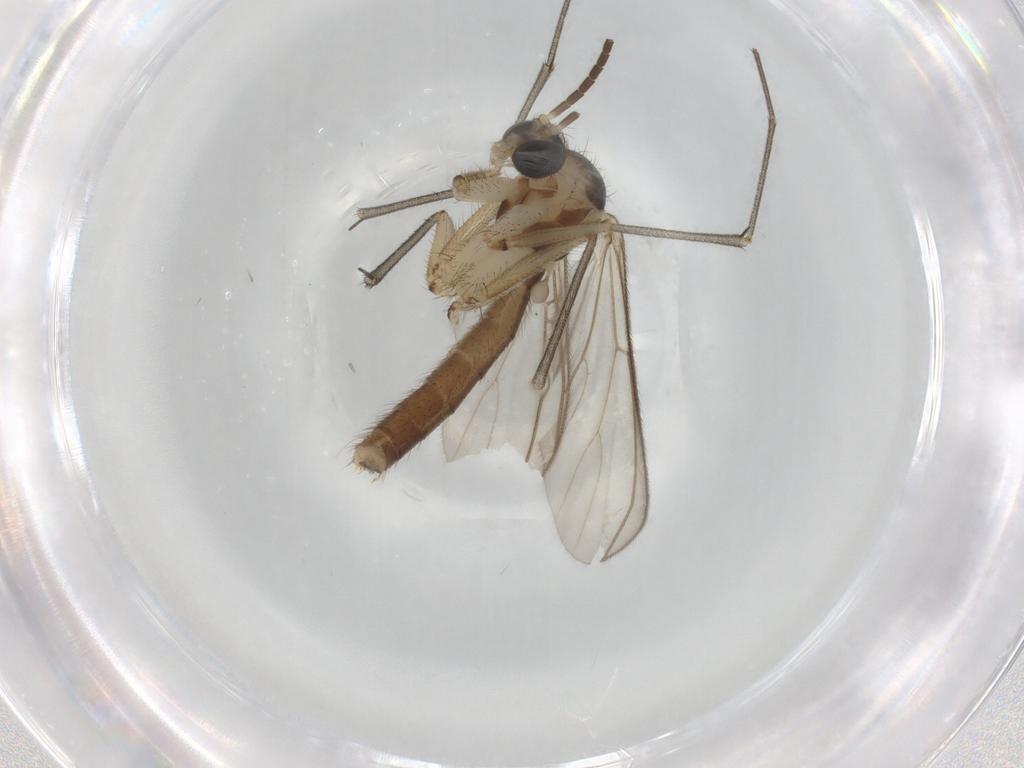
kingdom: Animalia
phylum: Arthropoda
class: Insecta
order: Diptera
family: Mycetophilidae
